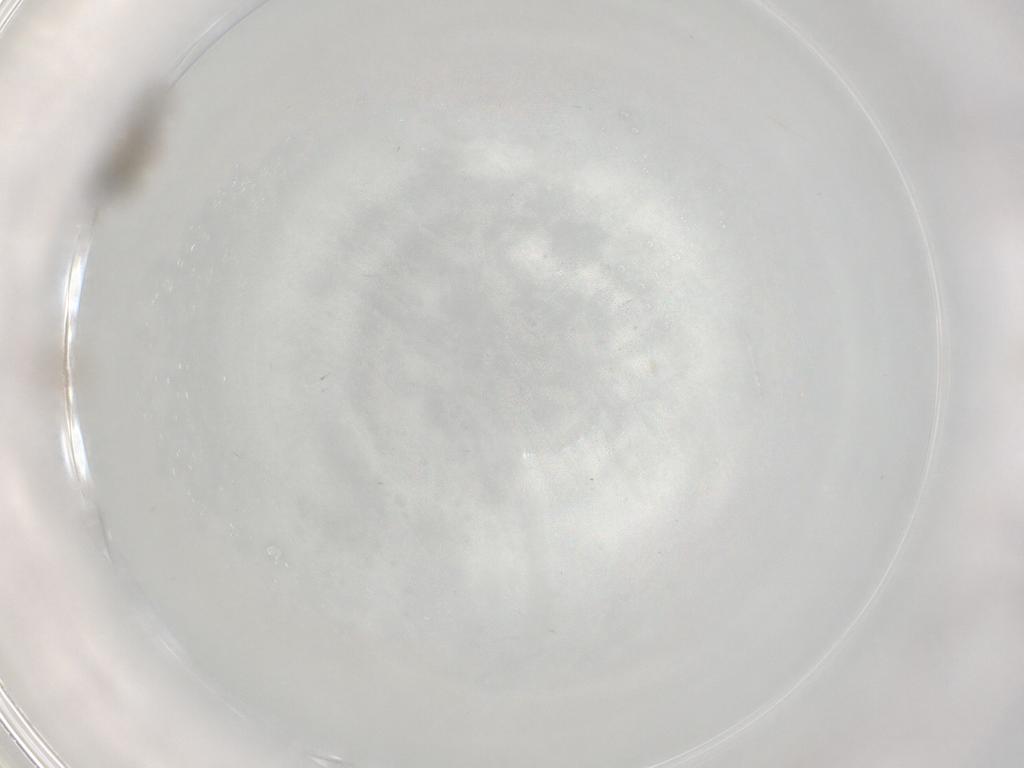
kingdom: Animalia
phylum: Arthropoda
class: Insecta
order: Diptera
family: Chironomidae
